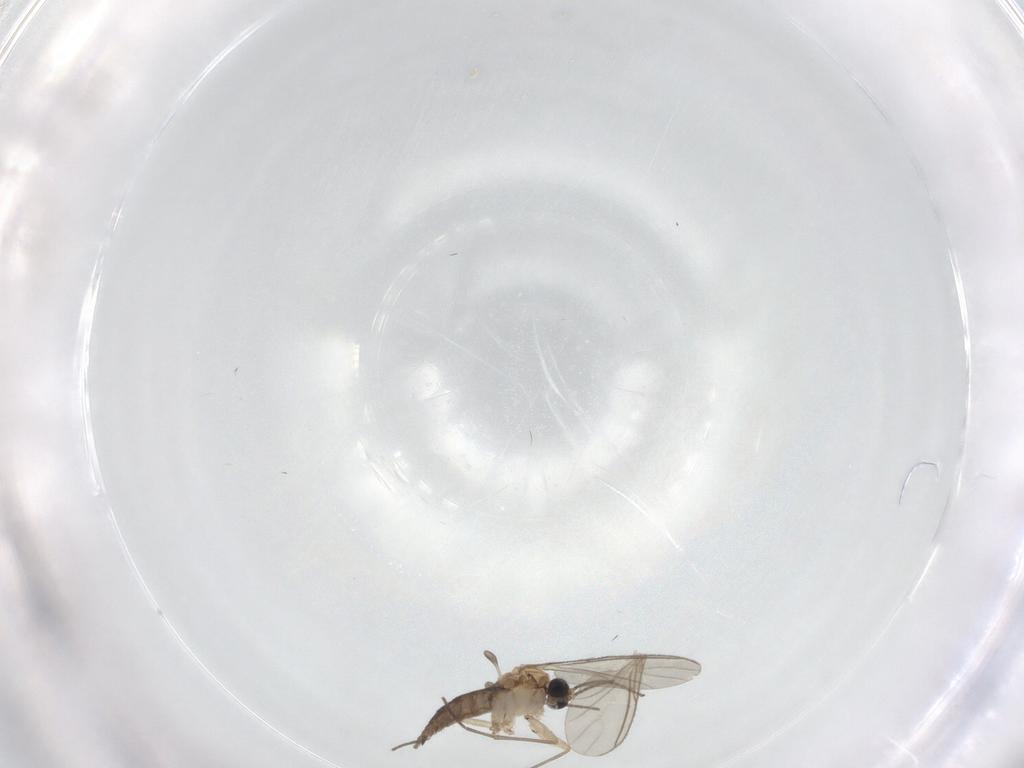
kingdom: Animalia
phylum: Arthropoda
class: Insecta
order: Diptera
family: Sciaridae
